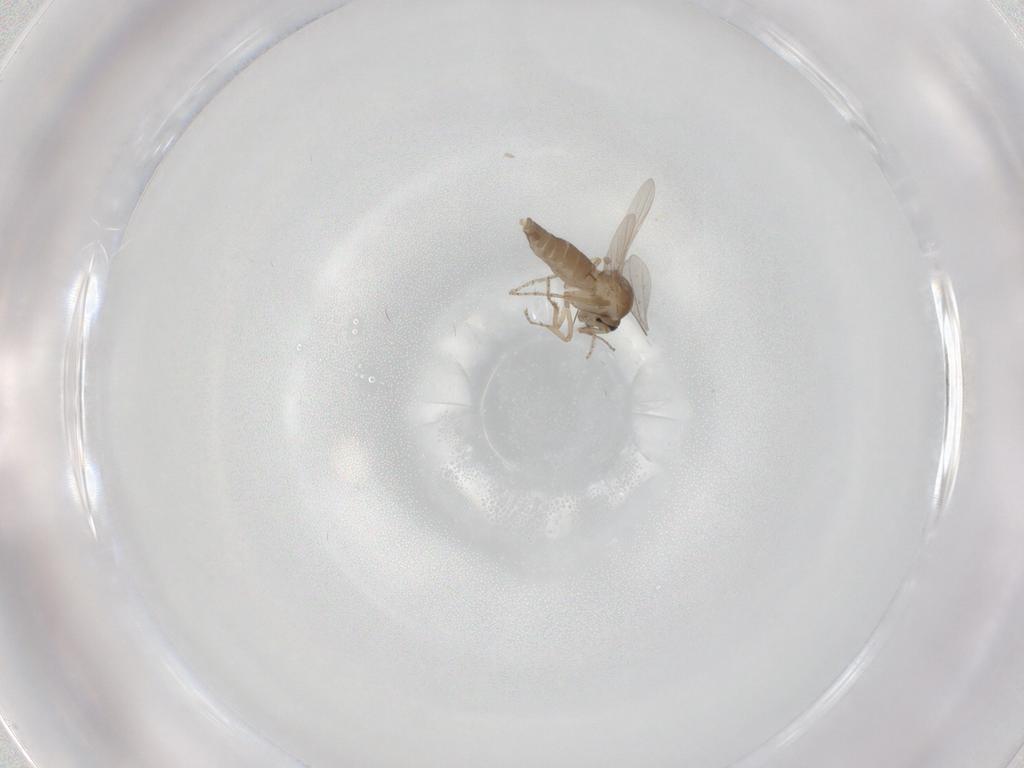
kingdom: Animalia
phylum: Arthropoda
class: Insecta
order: Diptera
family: Ceratopogonidae
